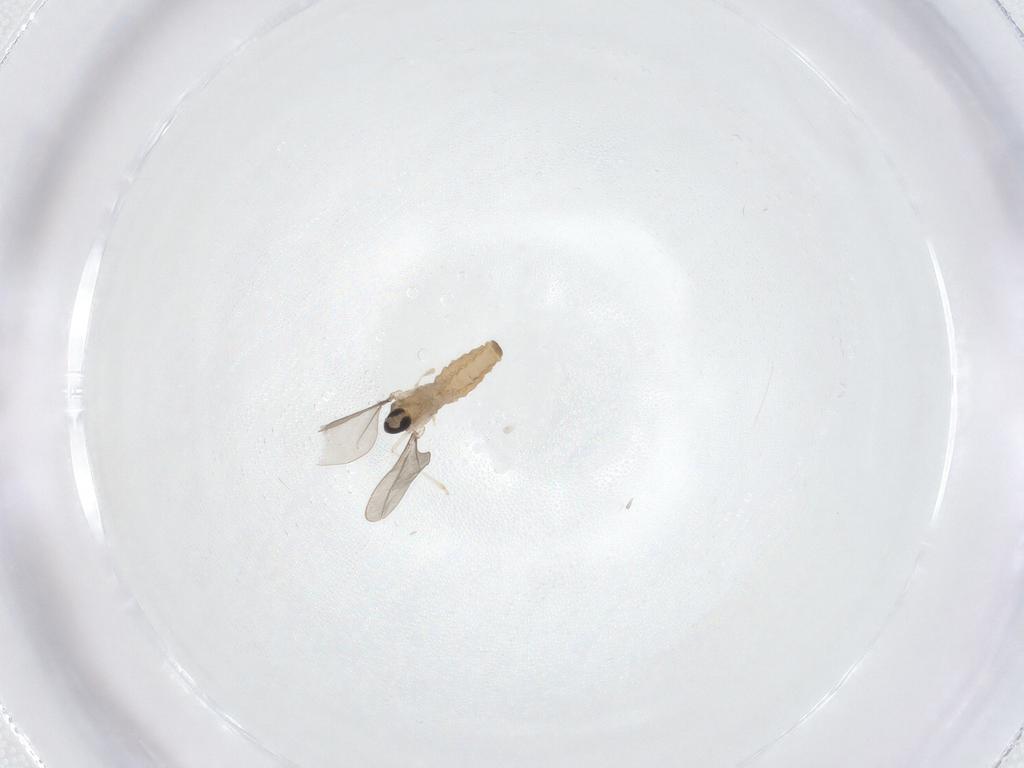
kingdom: Animalia
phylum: Arthropoda
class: Insecta
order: Diptera
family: Cecidomyiidae
